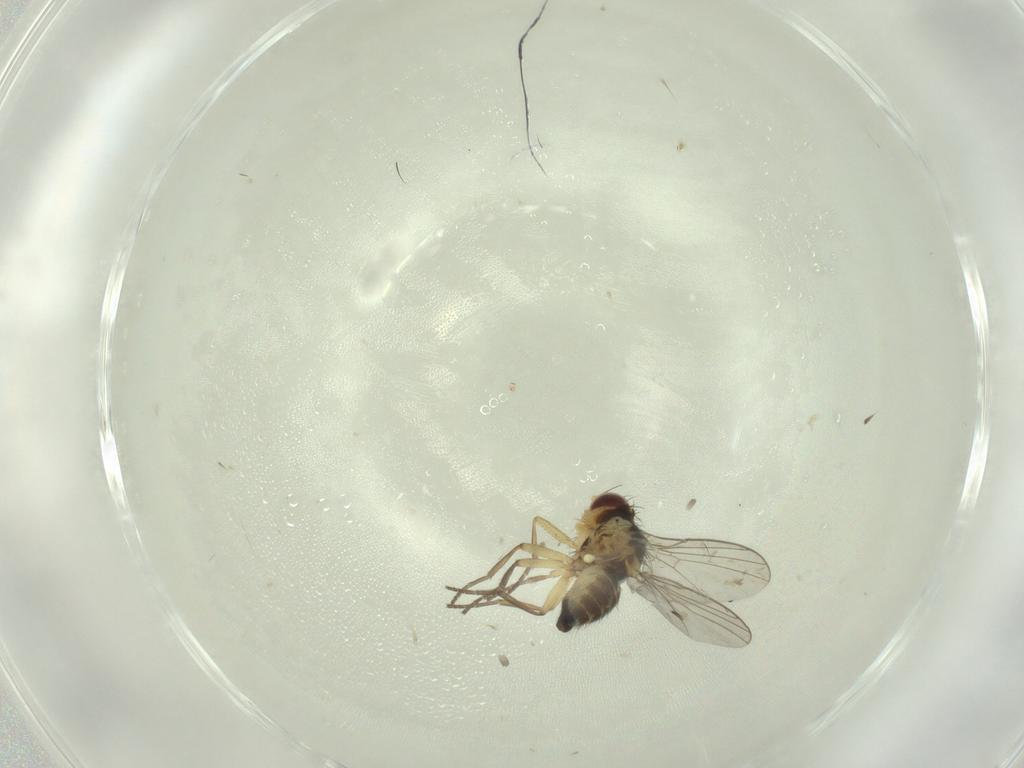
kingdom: Animalia
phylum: Arthropoda
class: Insecta
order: Diptera
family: Agromyzidae
